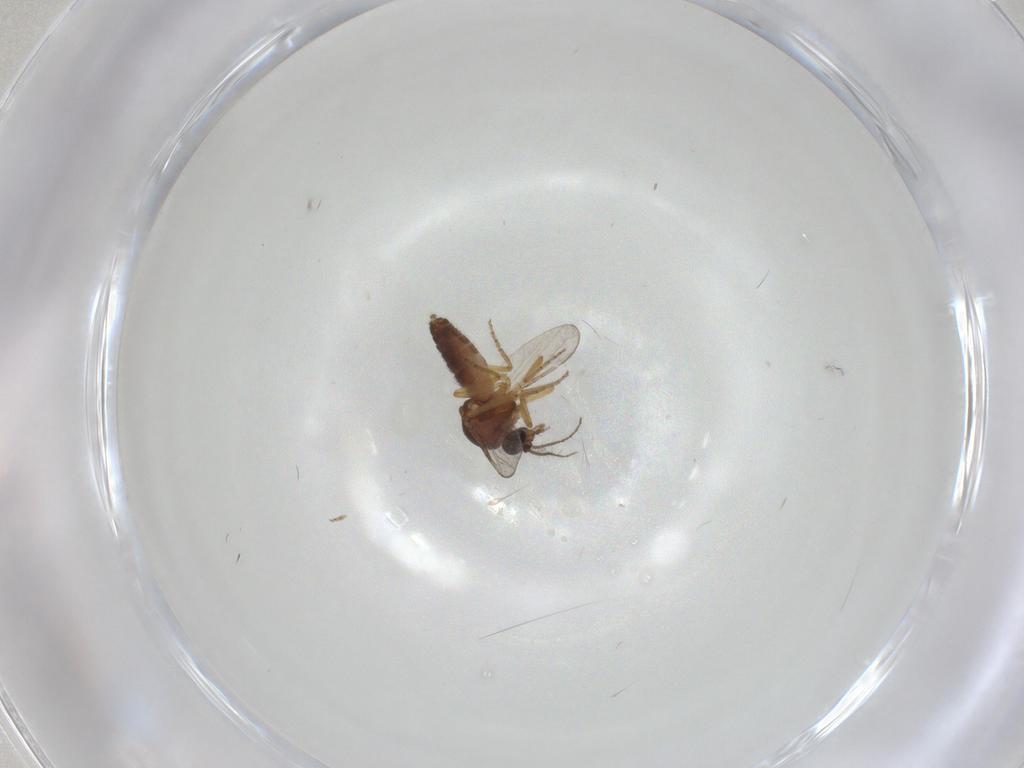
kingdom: Animalia
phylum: Arthropoda
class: Insecta
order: Diptera
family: Ceratopogonidae
